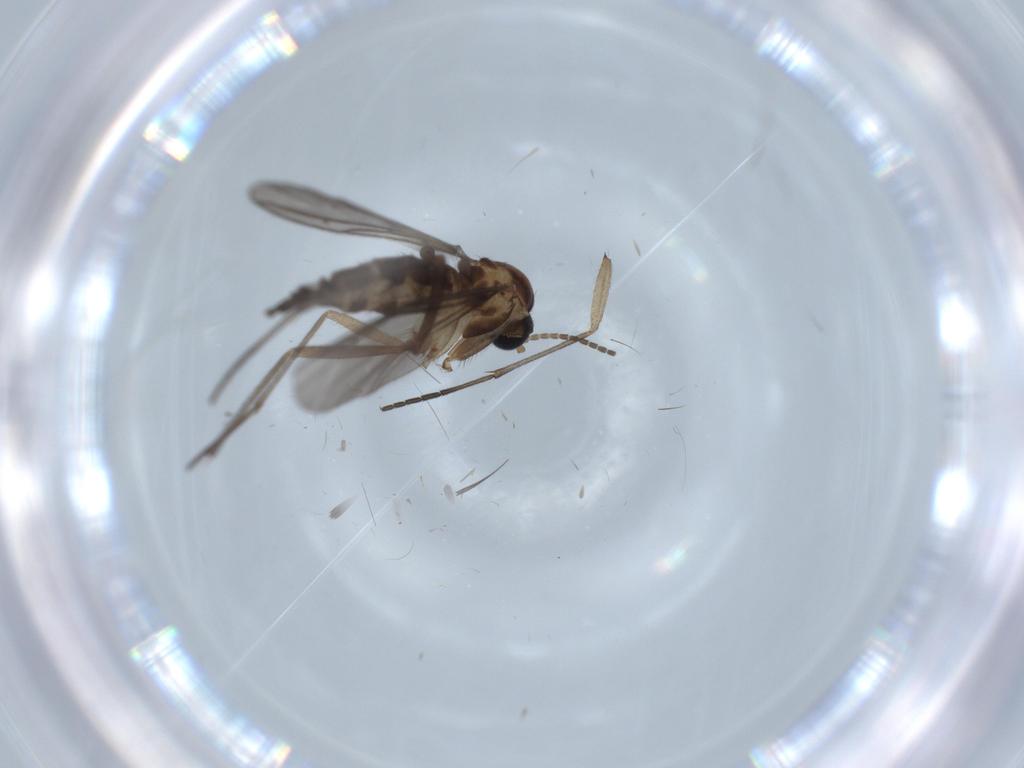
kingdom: Animalia
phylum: Arthropoda
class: Insecta
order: Diptera
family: Sciaridae
